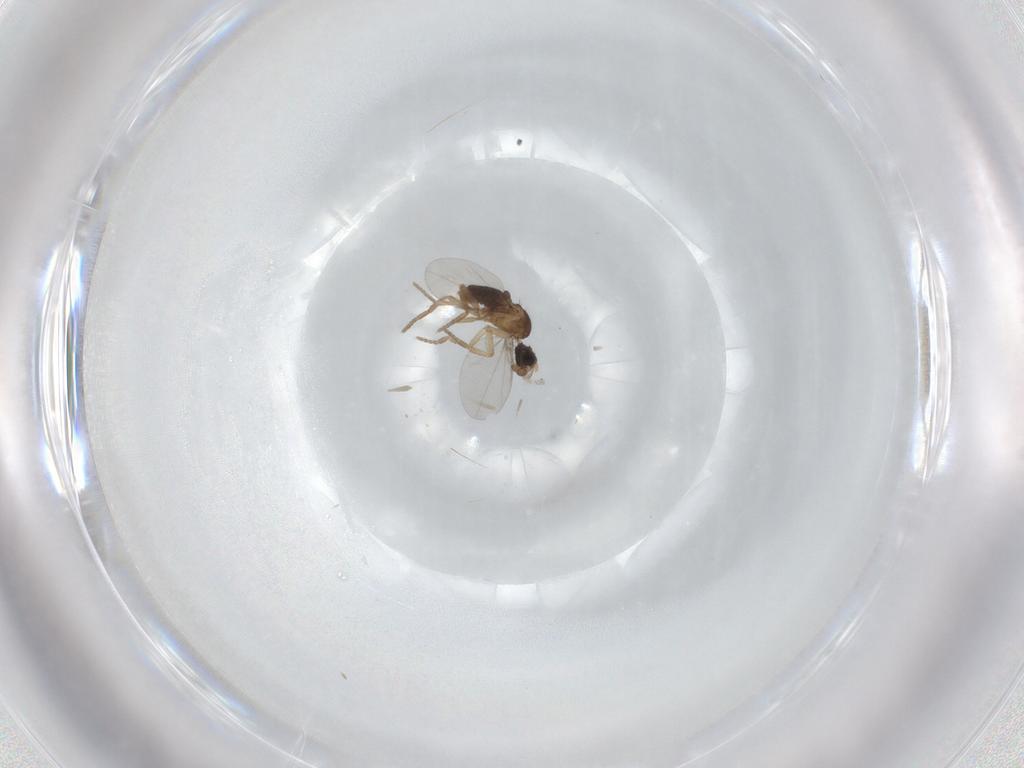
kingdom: Animalia
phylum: Arthropoda
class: Insecta
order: Diptera
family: Phoridae
